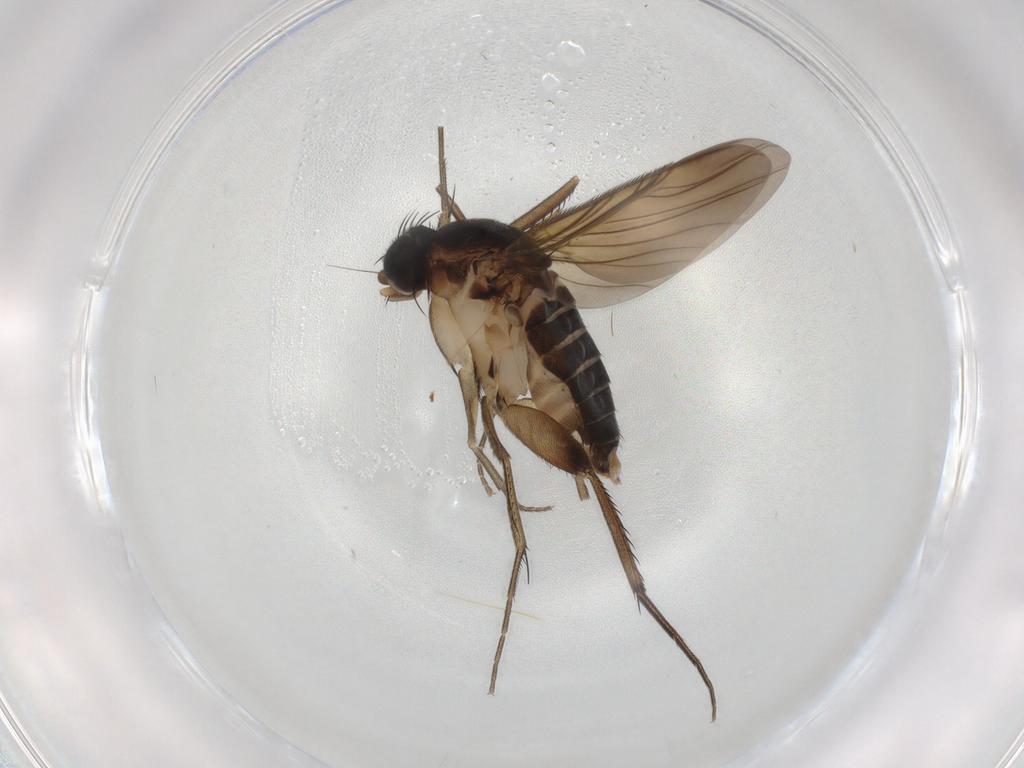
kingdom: Animalia
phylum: Arthropoda
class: Insecta
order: Diptera
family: Phoridae
